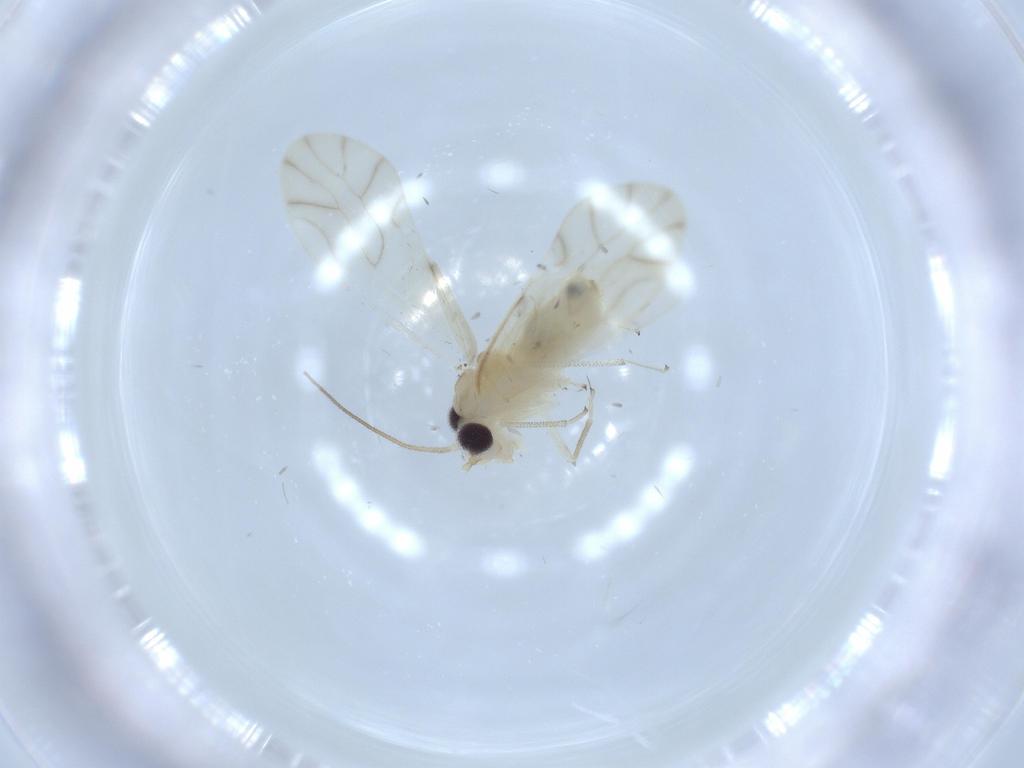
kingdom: Animalia
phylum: Arthropoda
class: Insecta
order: Psocodea
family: Caeciliusidae
